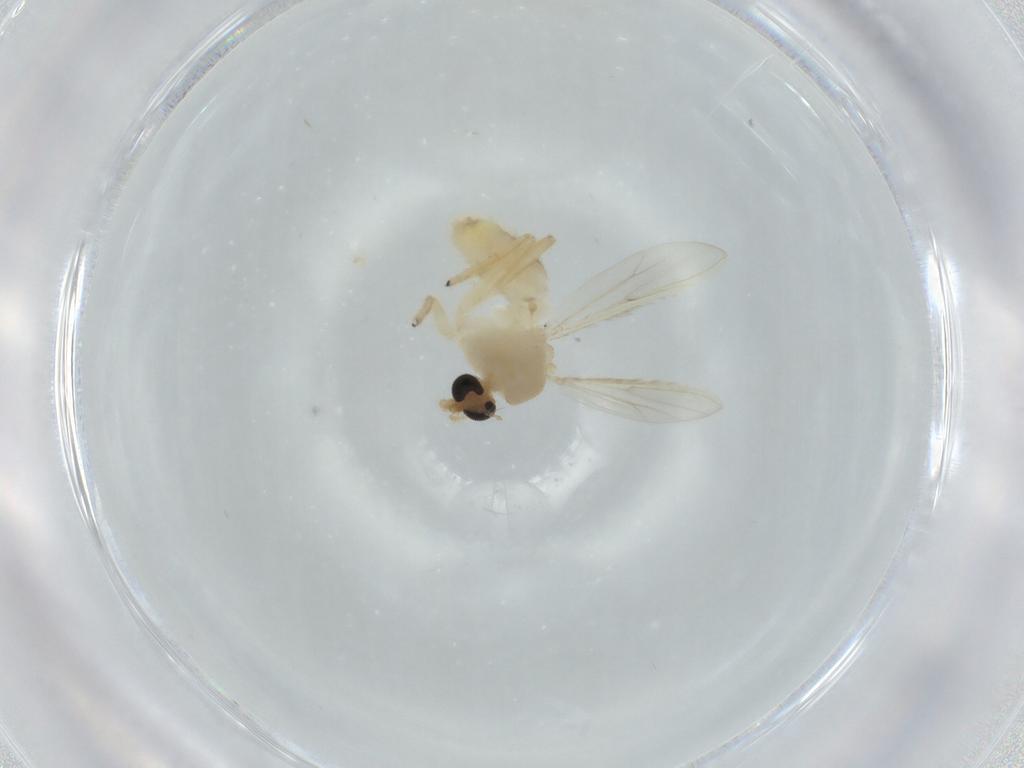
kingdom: Animalia
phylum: Arthropoda
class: Insecta
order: Diptera
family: Chironomidae
